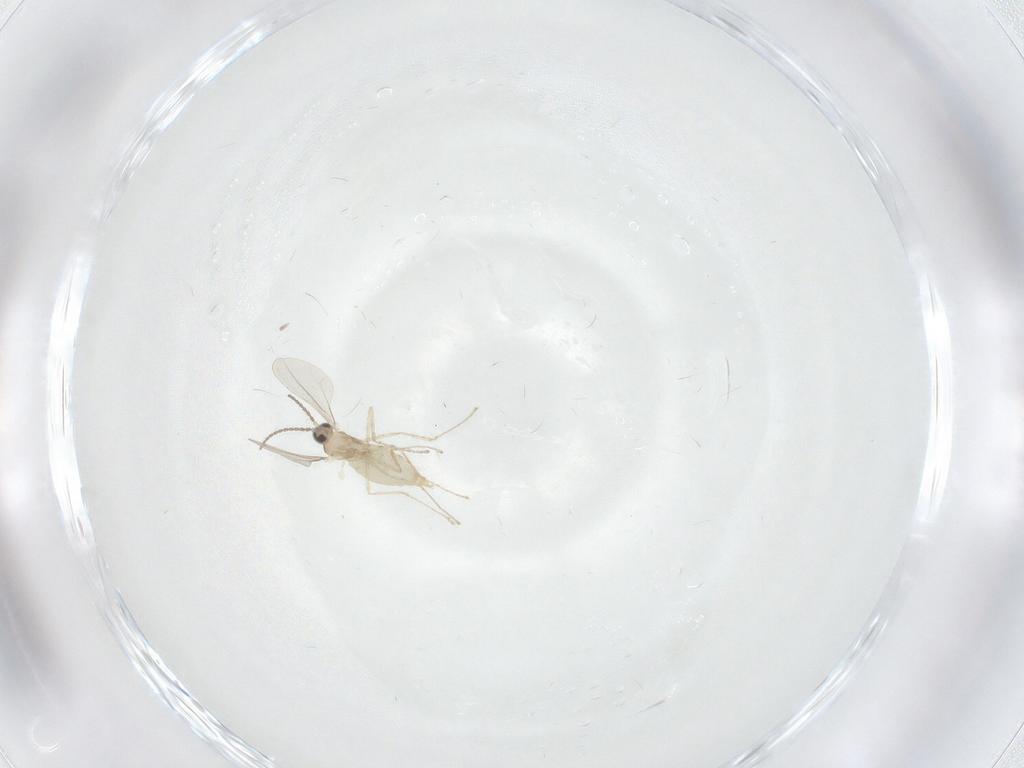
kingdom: Animalia
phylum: Arthropoda
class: Insecta
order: Diptera
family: Cecidomyiidae
